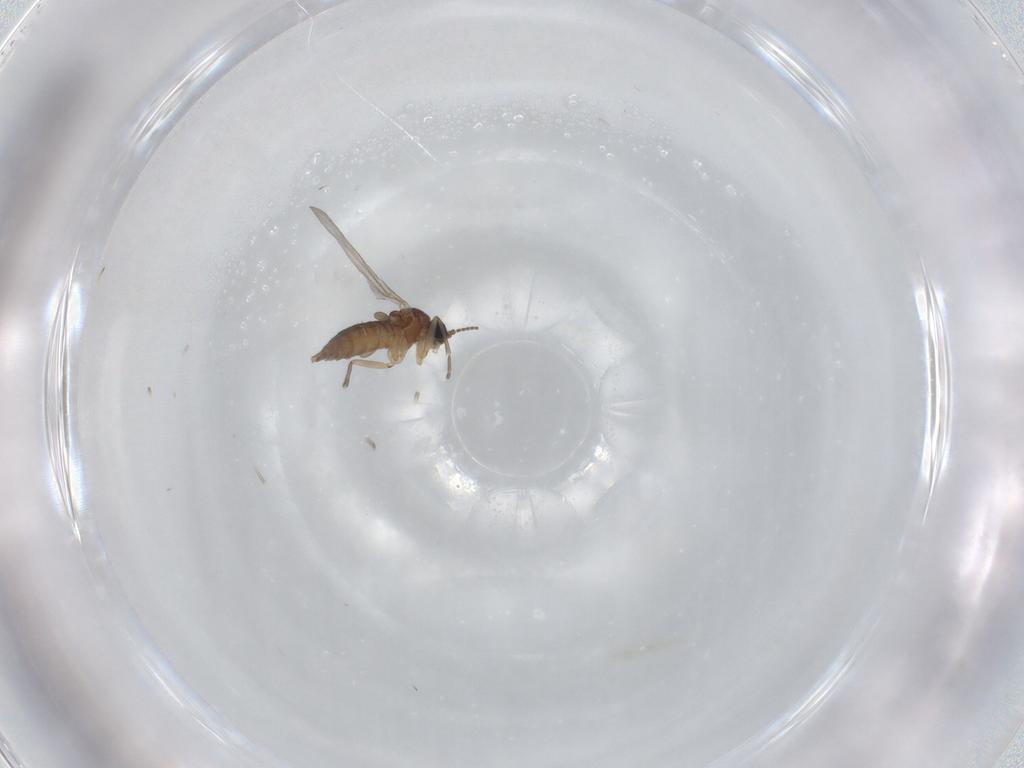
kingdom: Animalia
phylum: Arthropoda
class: Insecta
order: Diptera
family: Sciaridae
